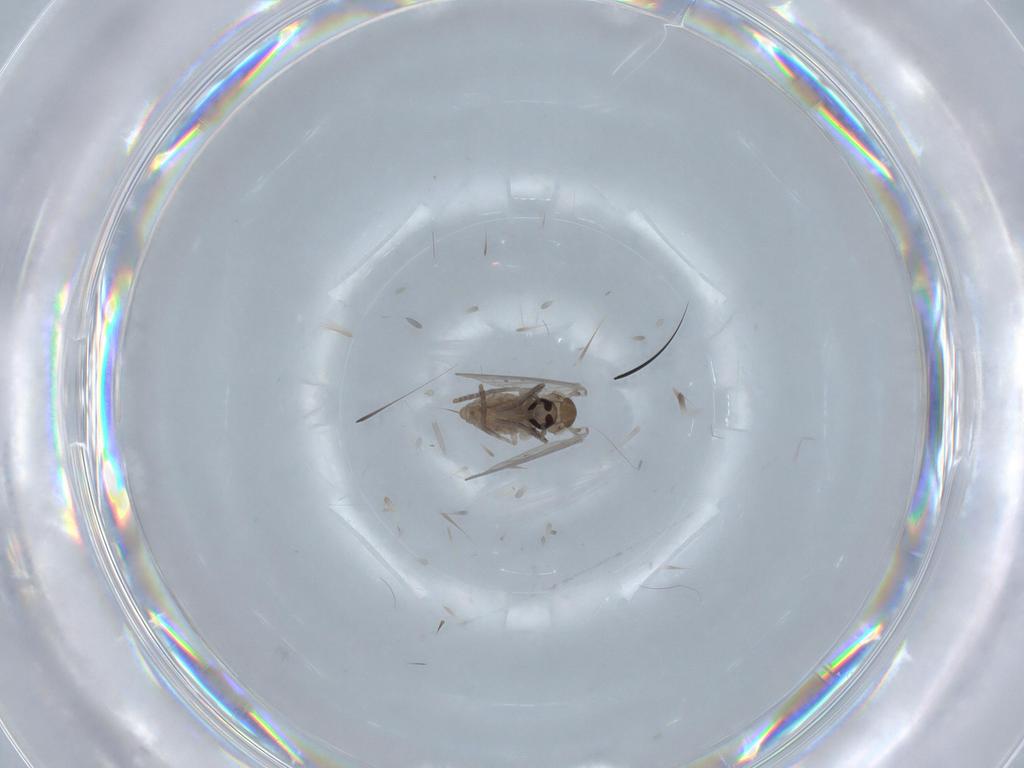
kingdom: Animalia
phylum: Arthropoda
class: Insecta
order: Diptera
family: Psychodidae
